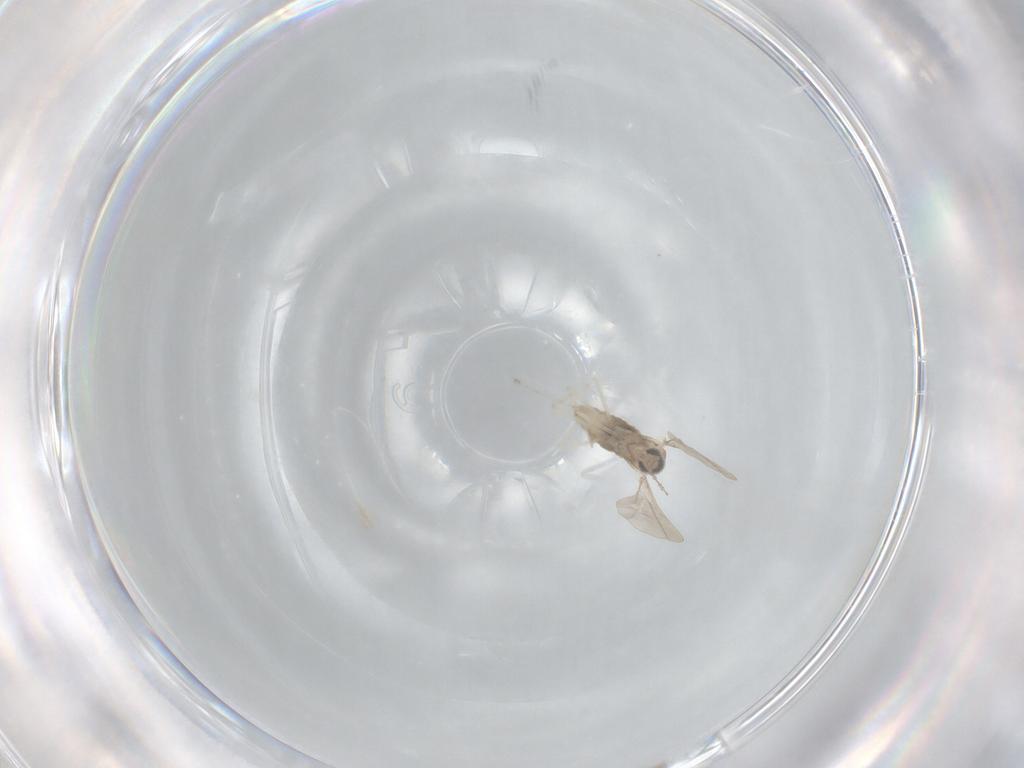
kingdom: Animalia
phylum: Arthropoda
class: Insecta
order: Diptera
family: Cecidomyiidae
